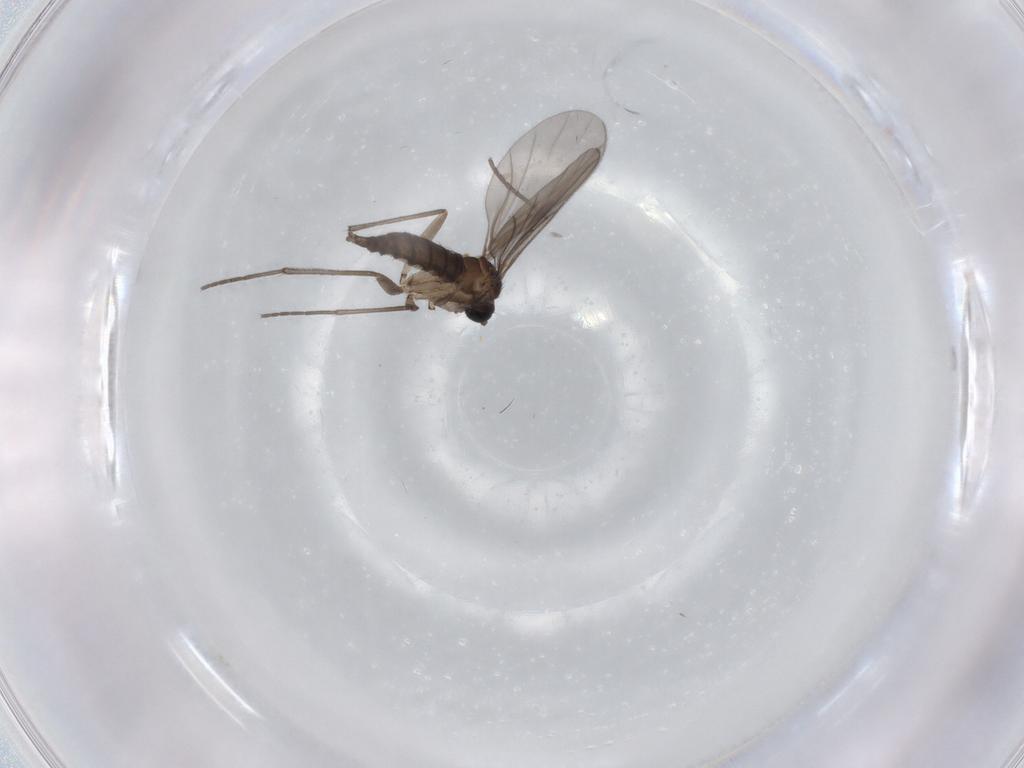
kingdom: Animalia
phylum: Arthropoda
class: Insecta
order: Diptera
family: Sciaridae
